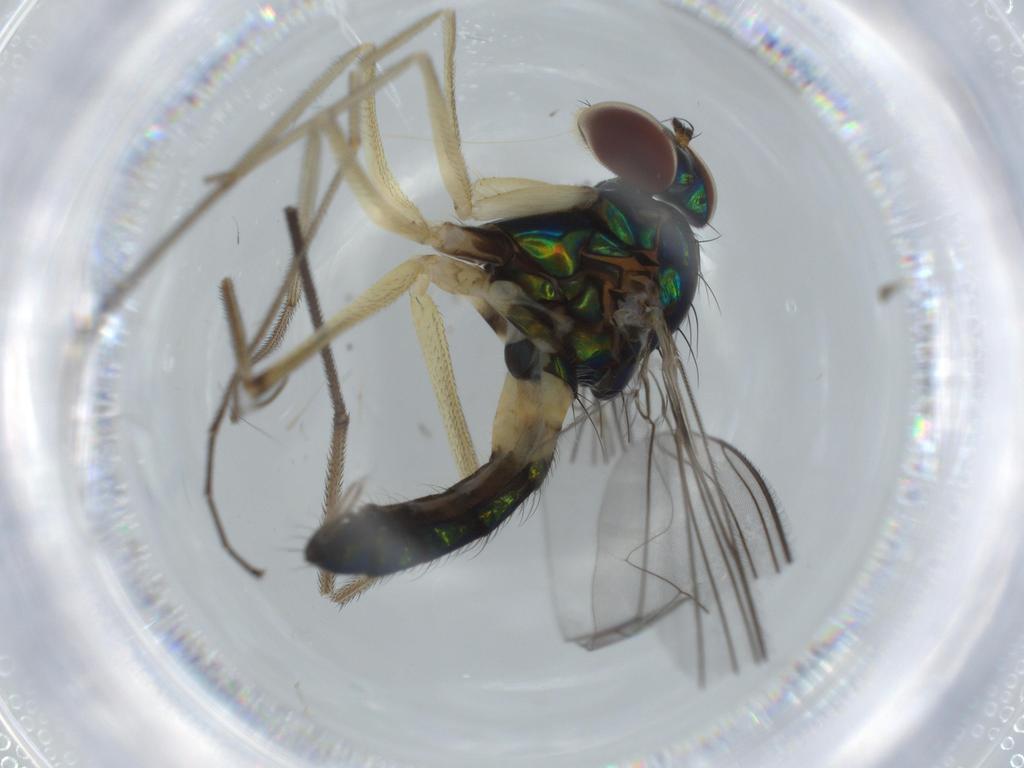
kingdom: Animalia
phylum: Arthropoda
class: Insecta
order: Diptera
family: Dolichopodidae
